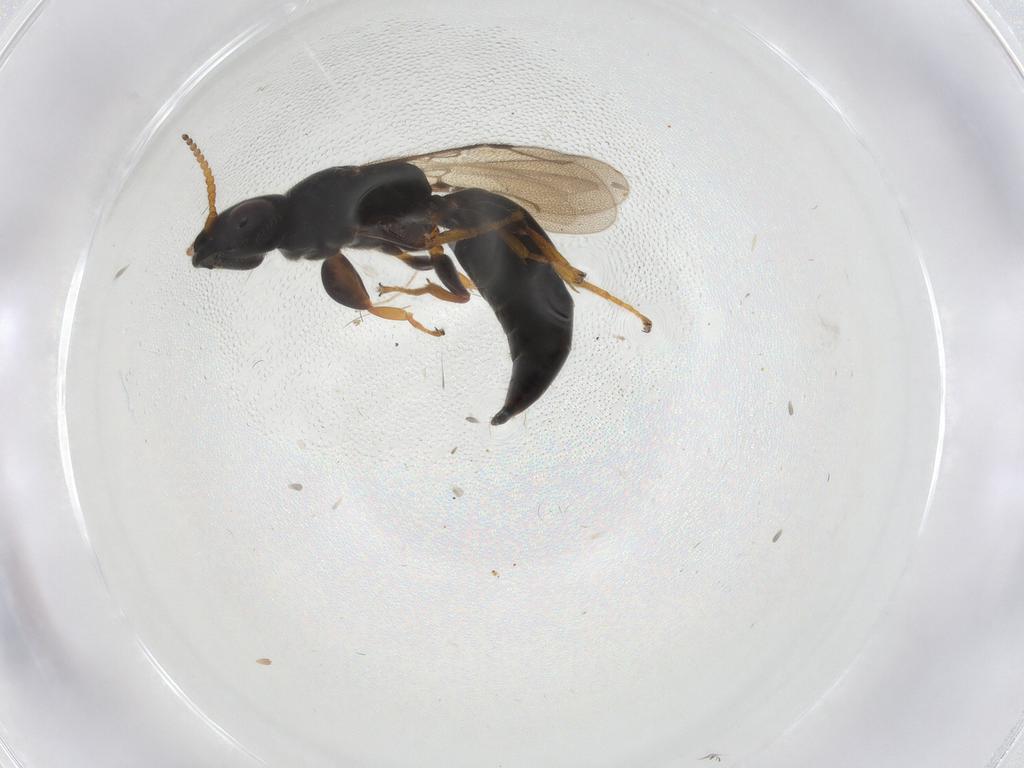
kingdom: Animalia
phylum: Arthropoda
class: Insecta
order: Hymenoptera
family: Bethylidae
